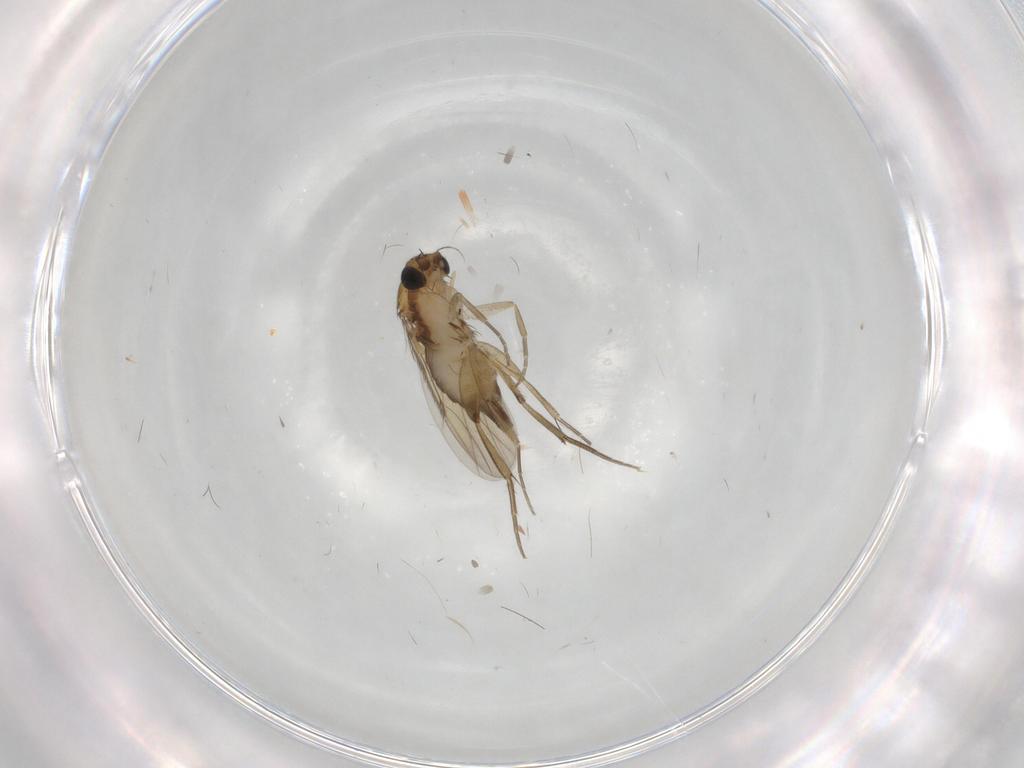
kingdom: Animalia
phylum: Arthropoda
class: Insecta
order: Diptera
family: Phoridae
